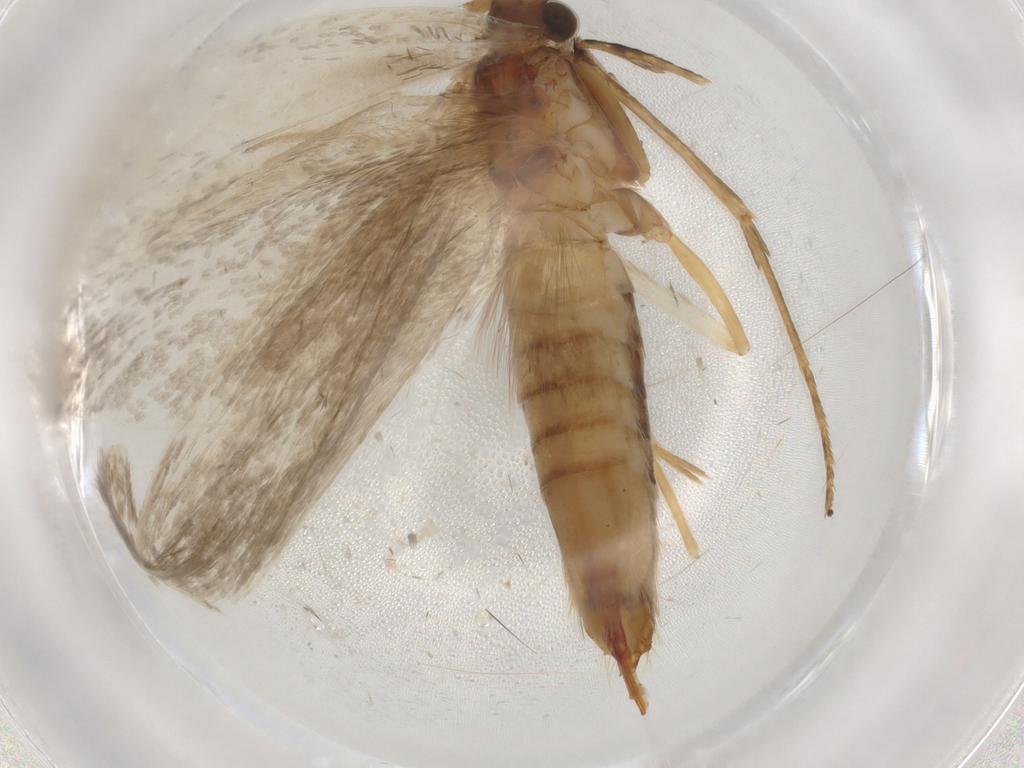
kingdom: Animalia
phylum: Arthropoda
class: Insecta
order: Lepidoptera
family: Adelidae
